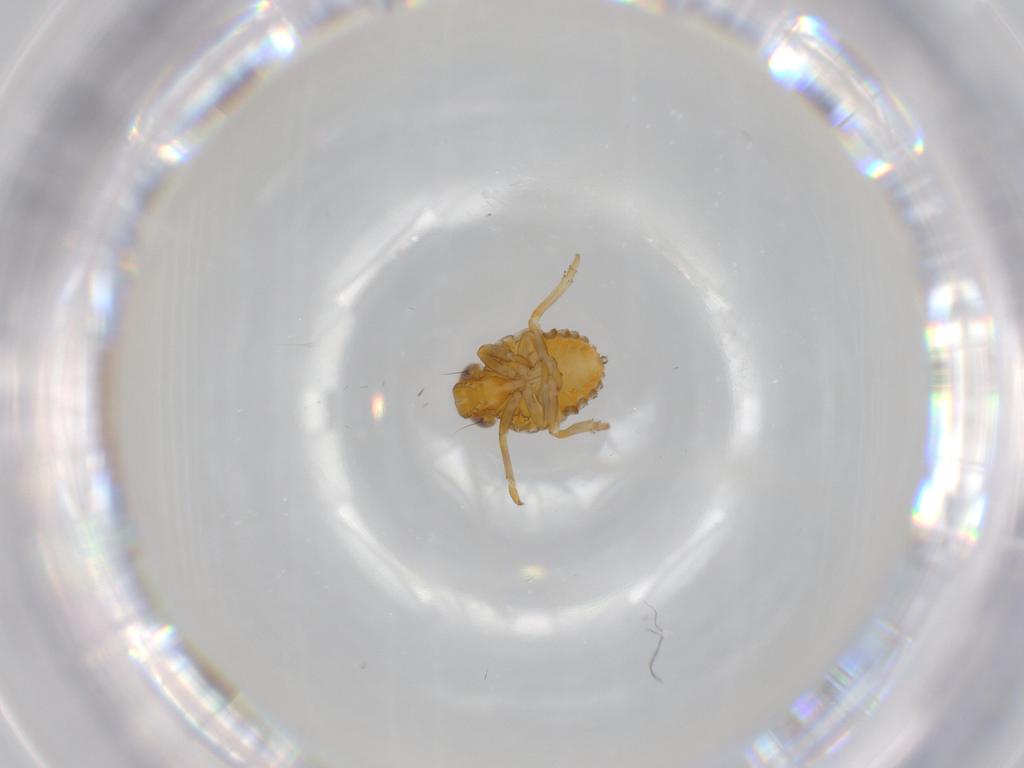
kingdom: Animalia
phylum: Arthropoda
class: Insecta
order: Hemiptera
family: Issidae
